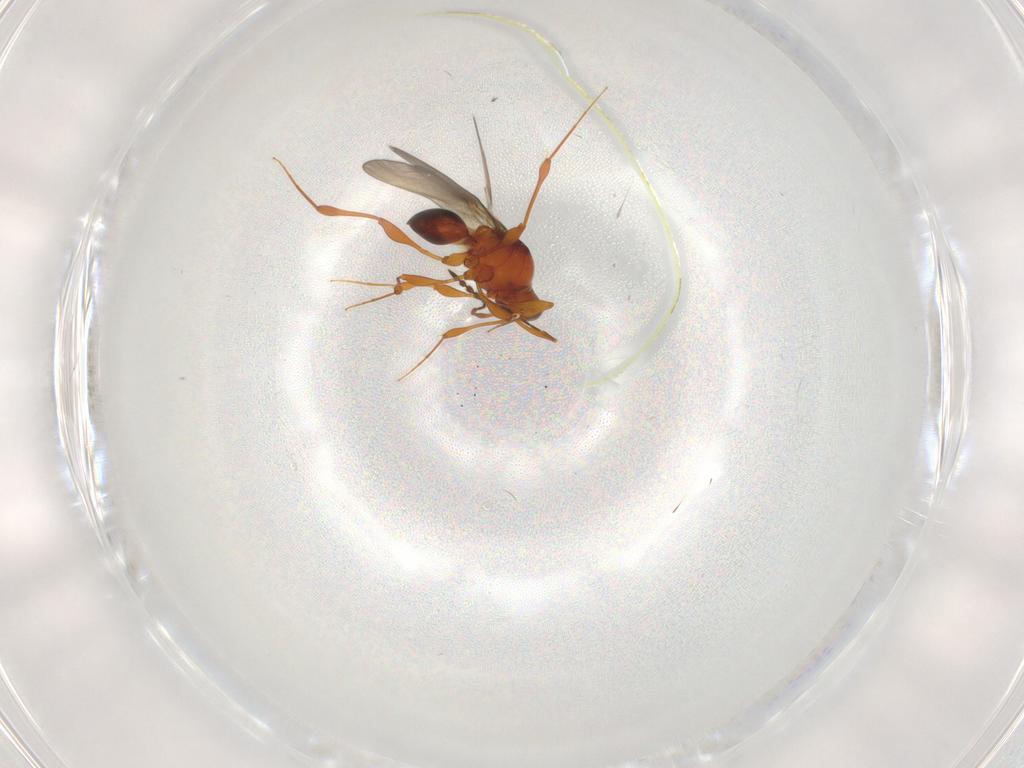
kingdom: Animalia
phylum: Arthropoda
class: Insecta
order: Hymenoptera
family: Platygastridae
